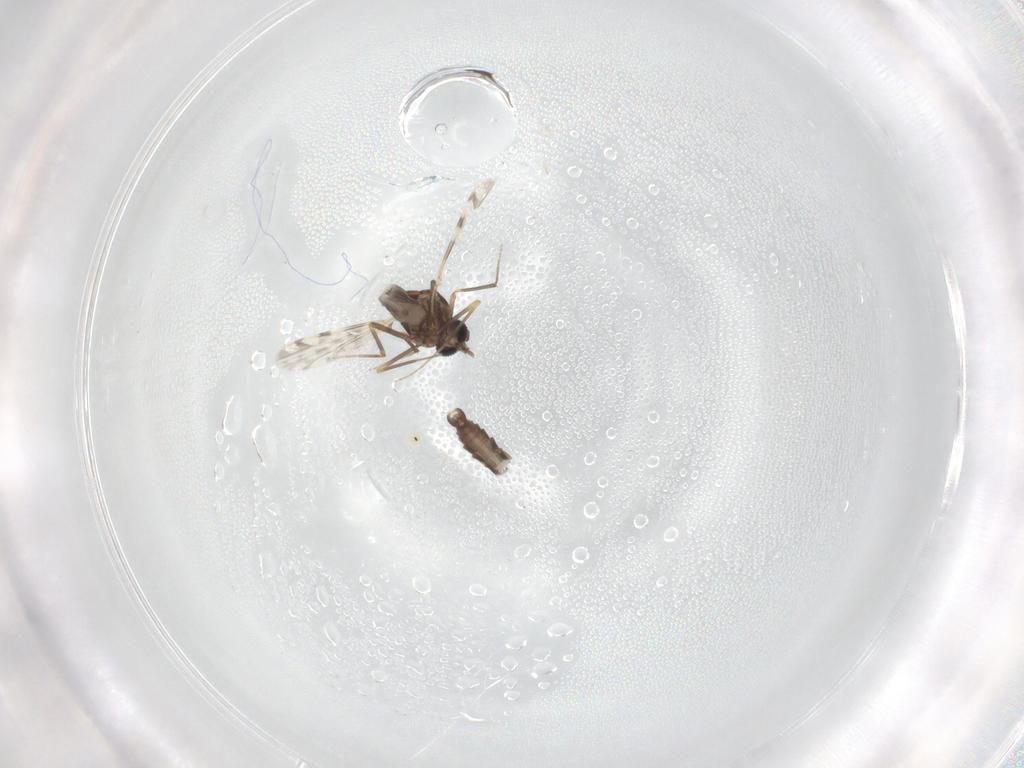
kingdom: Animalia
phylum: Arthropoda
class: Insecta
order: Diptera
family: Ceratopogonidae
